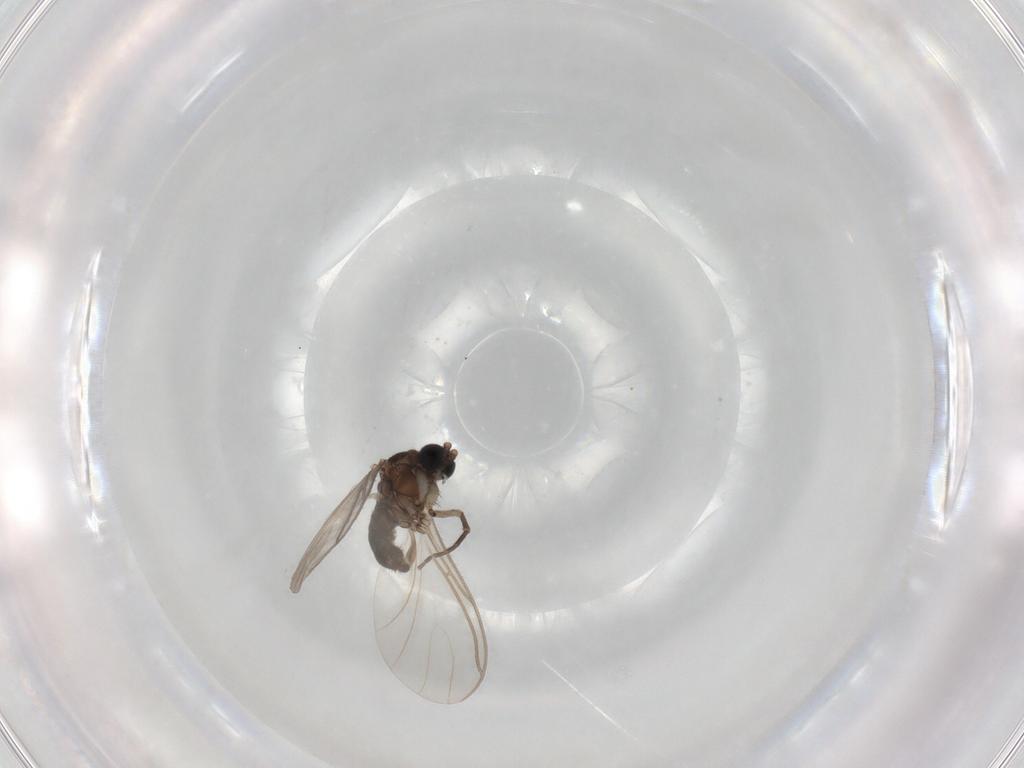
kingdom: Animalia
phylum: Arthropoda
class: Insecta
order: Diptera
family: Sciaridae
